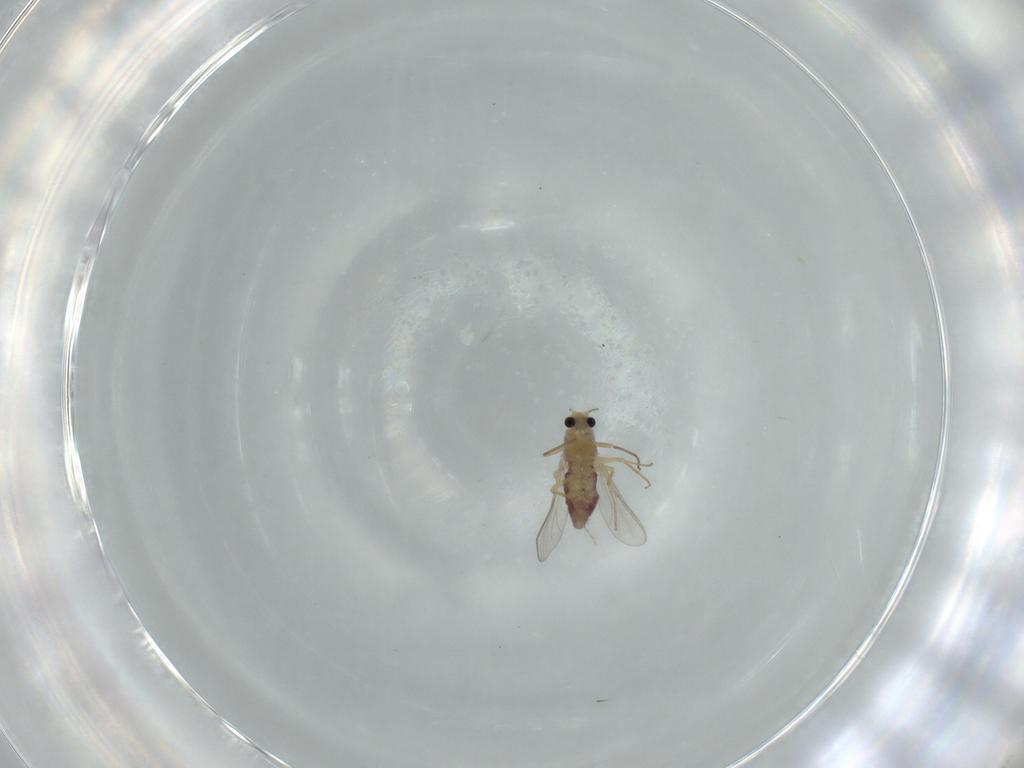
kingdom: Animalia
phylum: Arthropoda
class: Insecta
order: Diptera
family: Chironomidae
